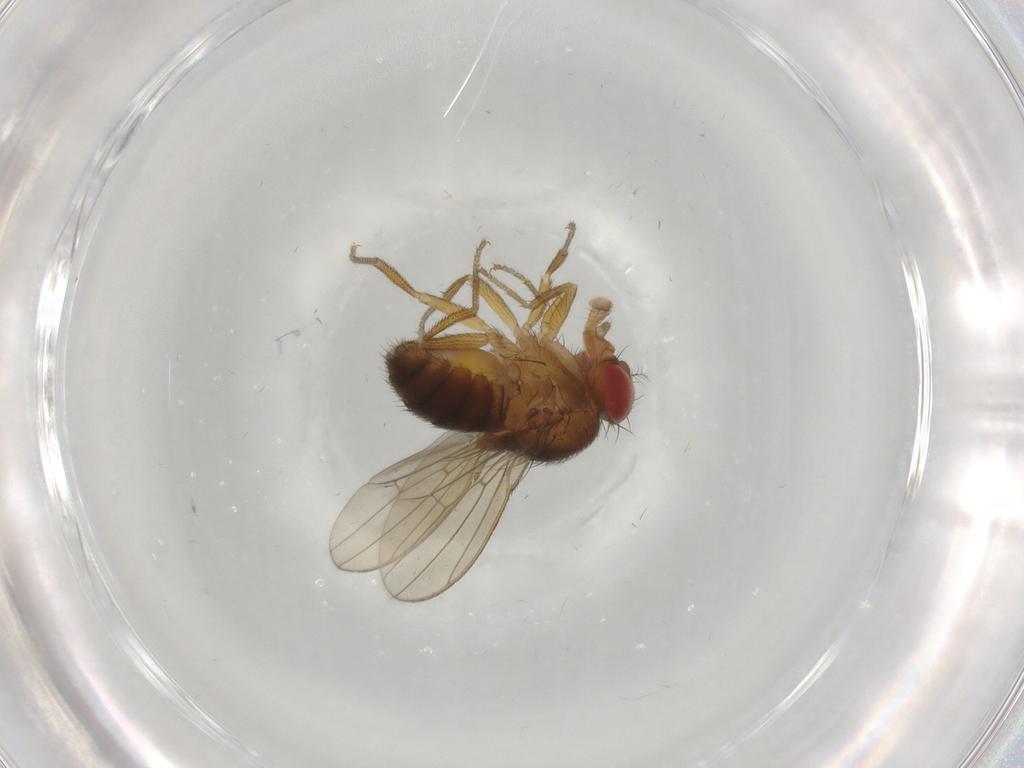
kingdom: Animalia
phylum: Arthropoda
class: Insecta
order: Diptera
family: Drosophilidae
